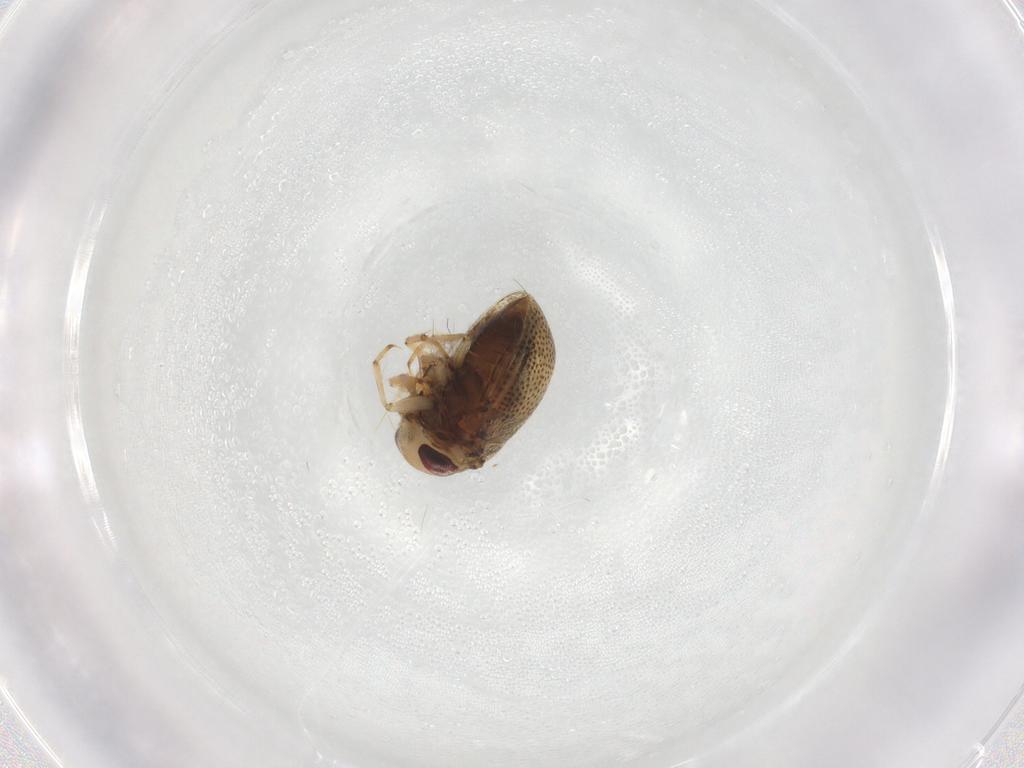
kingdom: Animalia
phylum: Arthropoda
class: Insecta
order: Hemiptera
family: Cicadellidae
